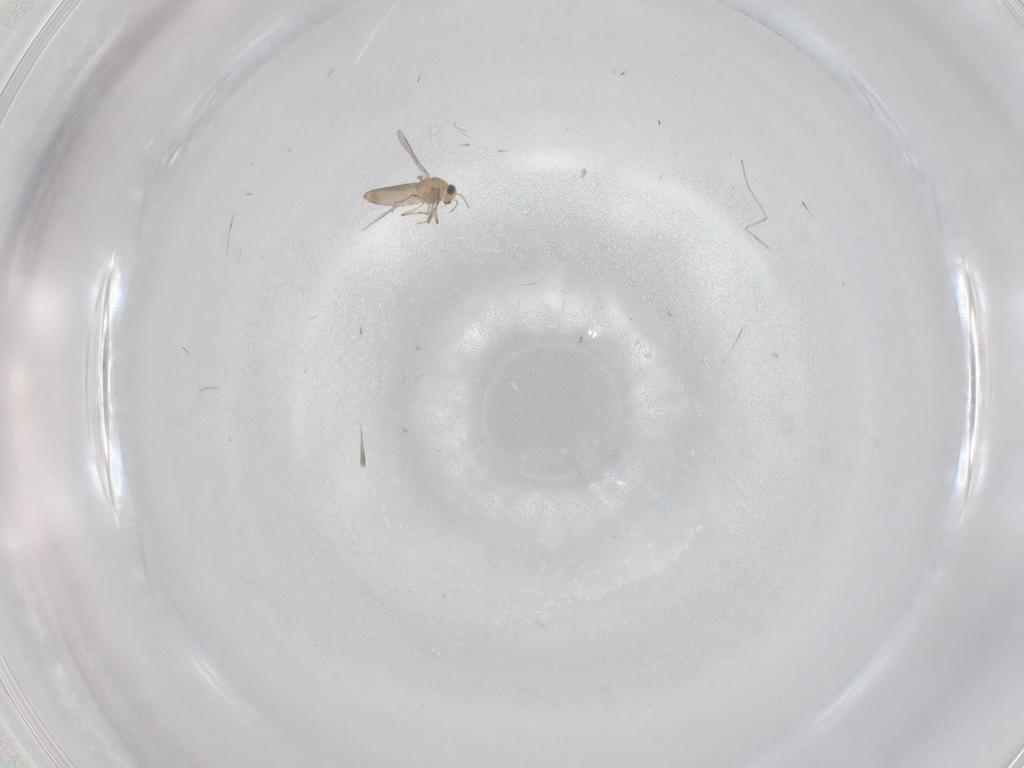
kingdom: Animalia
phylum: Arthropoda
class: Insecta
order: Diptera
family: Chironomidae
